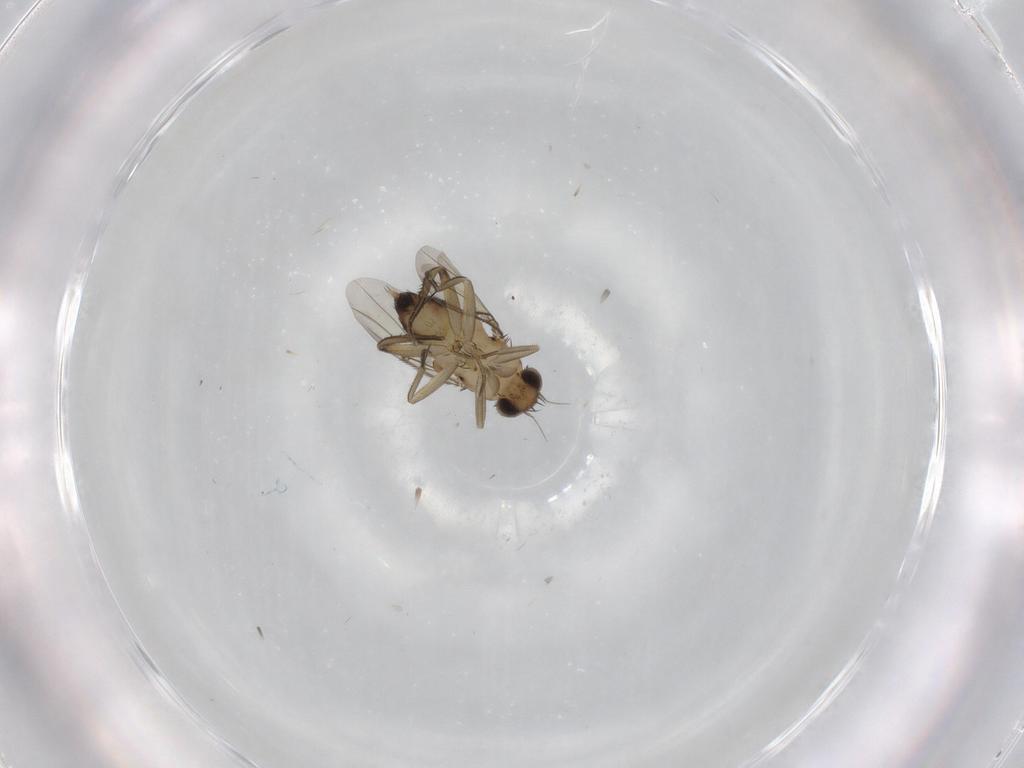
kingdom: Animalia
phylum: Arthropoda
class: Insecta
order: Diptera
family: Phoridae
